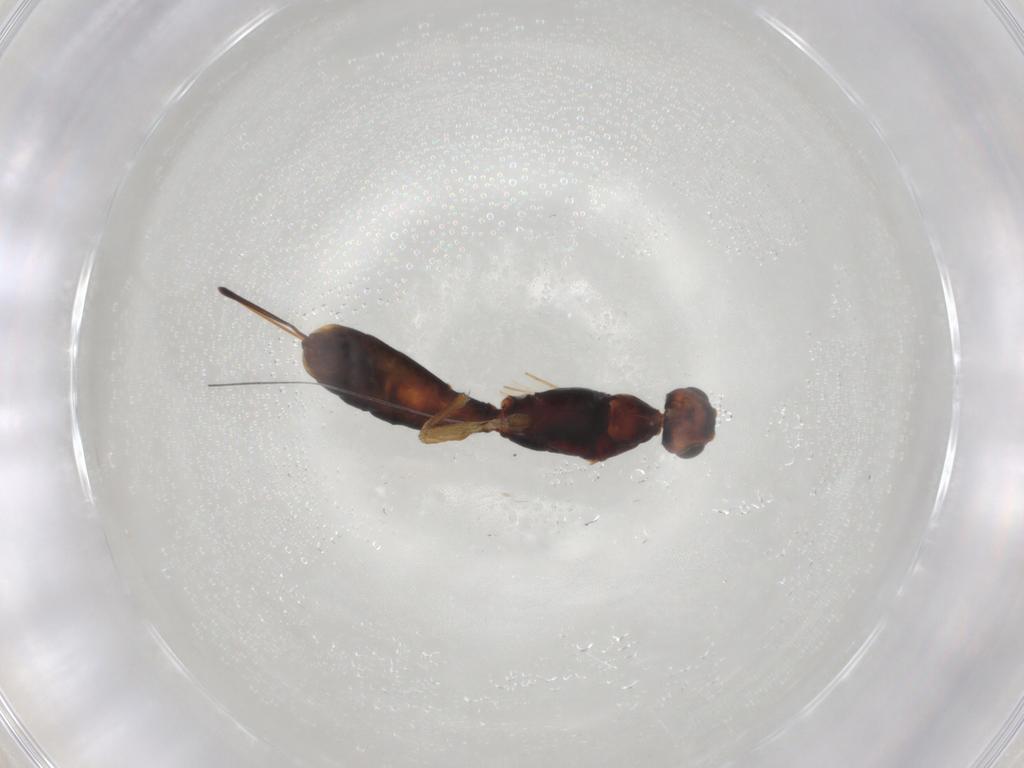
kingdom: Animalia
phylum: Arthropoda
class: Insecta
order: Hymenoptera
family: Braconidae
